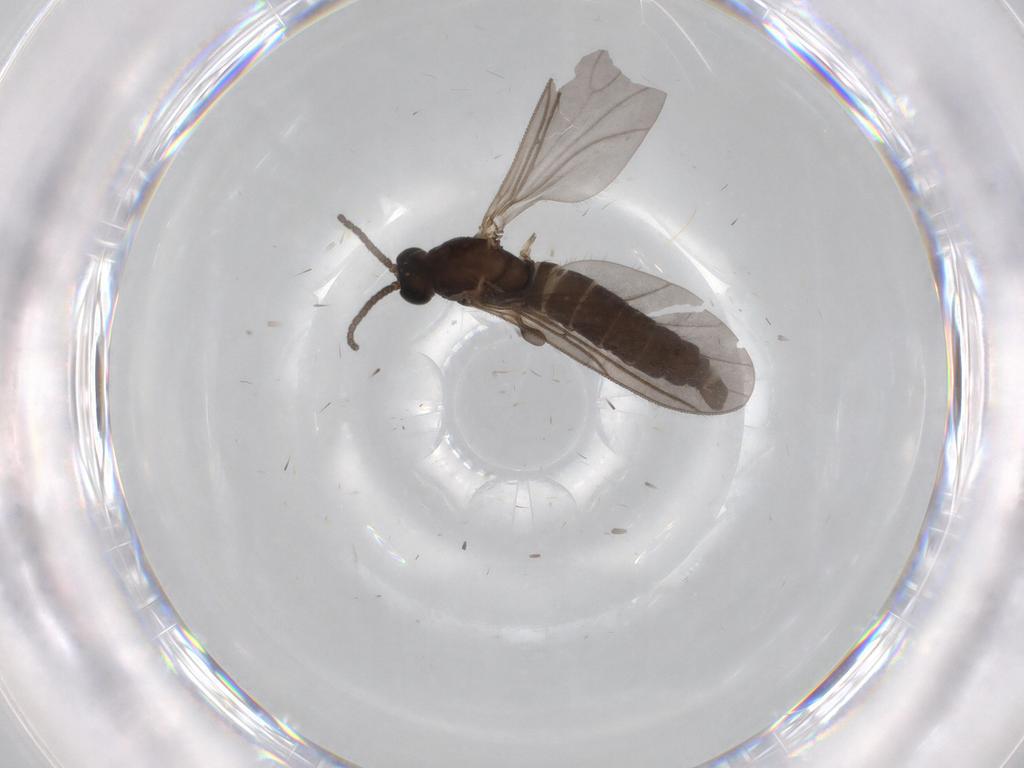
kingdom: Animalia
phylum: Arthropoda
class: Insecta
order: Diptera
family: Sciaridae
